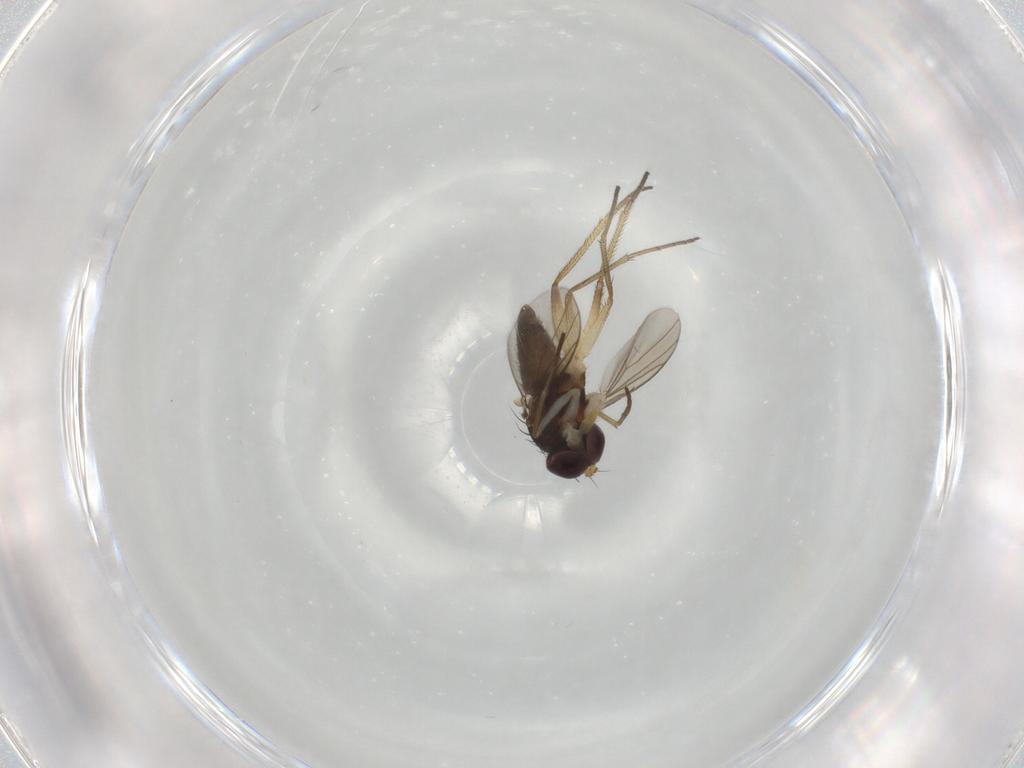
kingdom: Animalia
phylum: Arthropoda
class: Insecta
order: Diptera
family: Dolichopodidae
